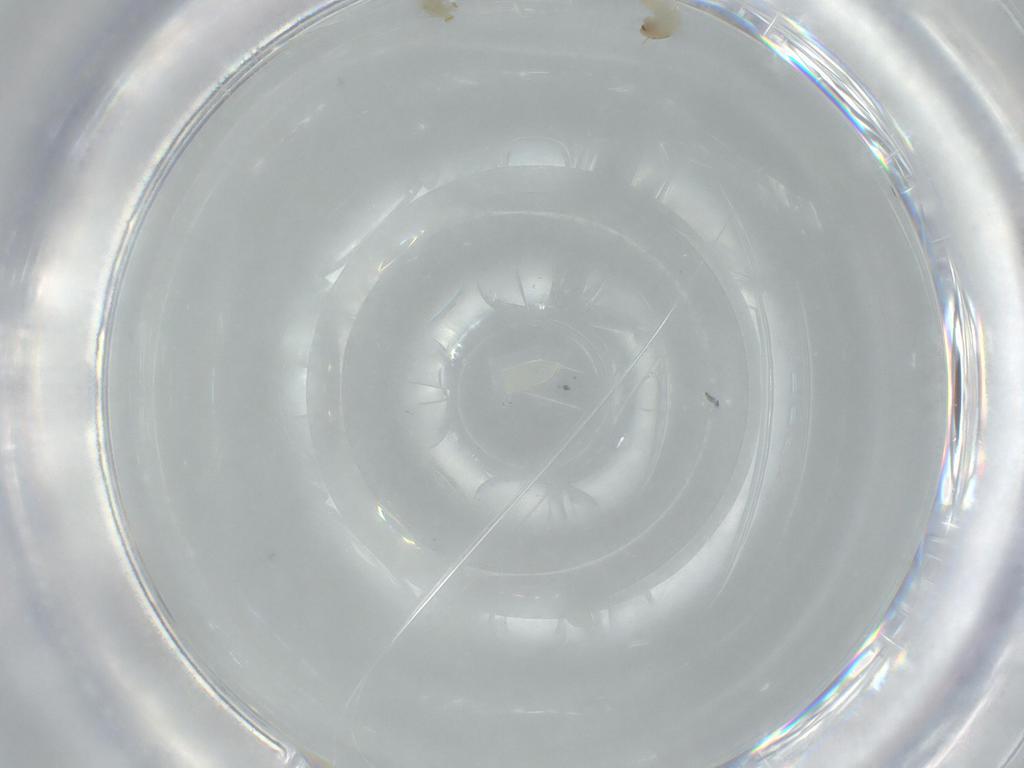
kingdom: Animalia
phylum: Arthropoda
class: Insecta
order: Diptera
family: Chironomidae
